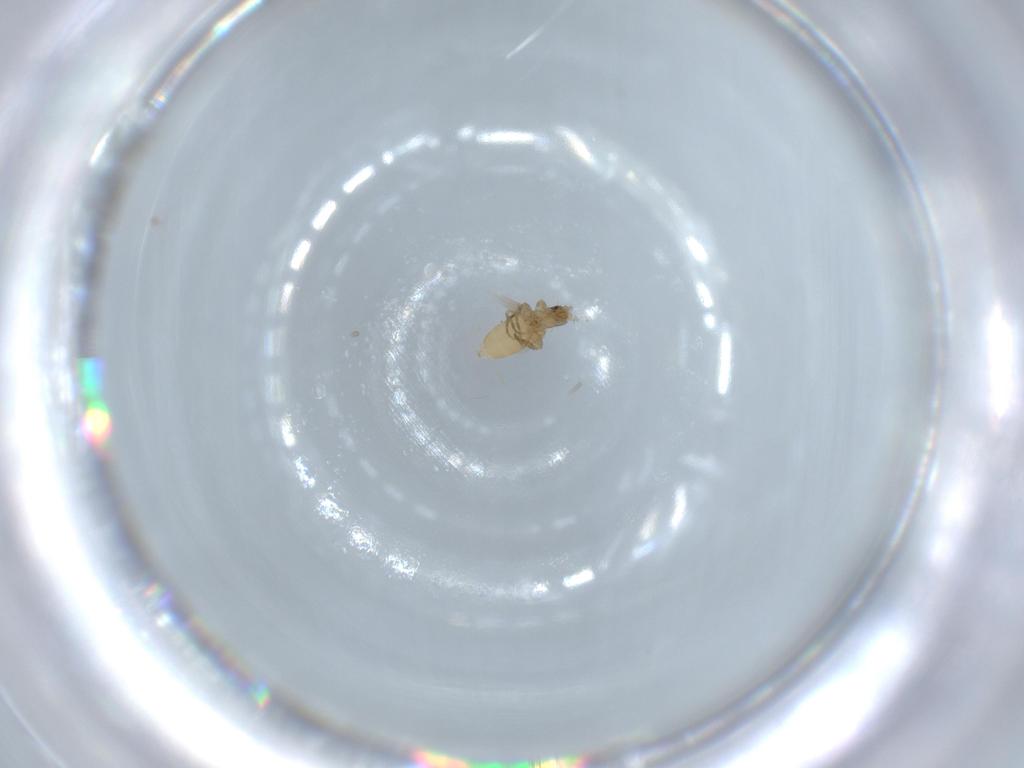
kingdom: Animalia
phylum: Arthropoda
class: Insecta
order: Diptera
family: Phoridae
